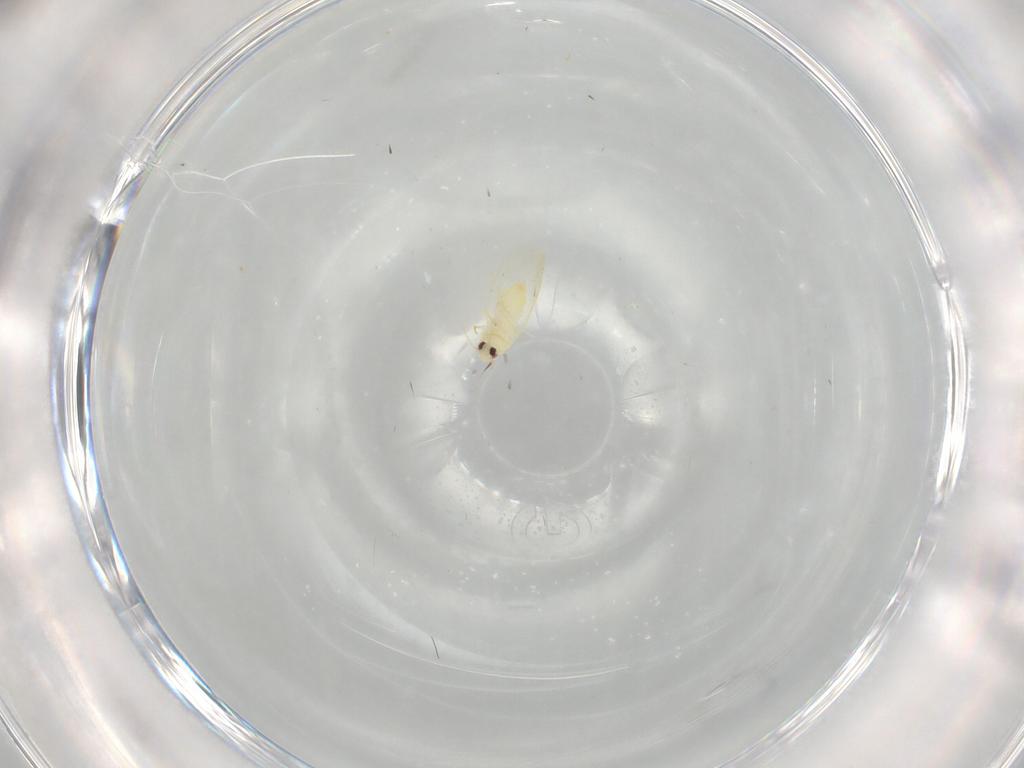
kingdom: Animalia
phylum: Arthropoda
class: Insecta
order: Hemiptera
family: Aleyrodidae
